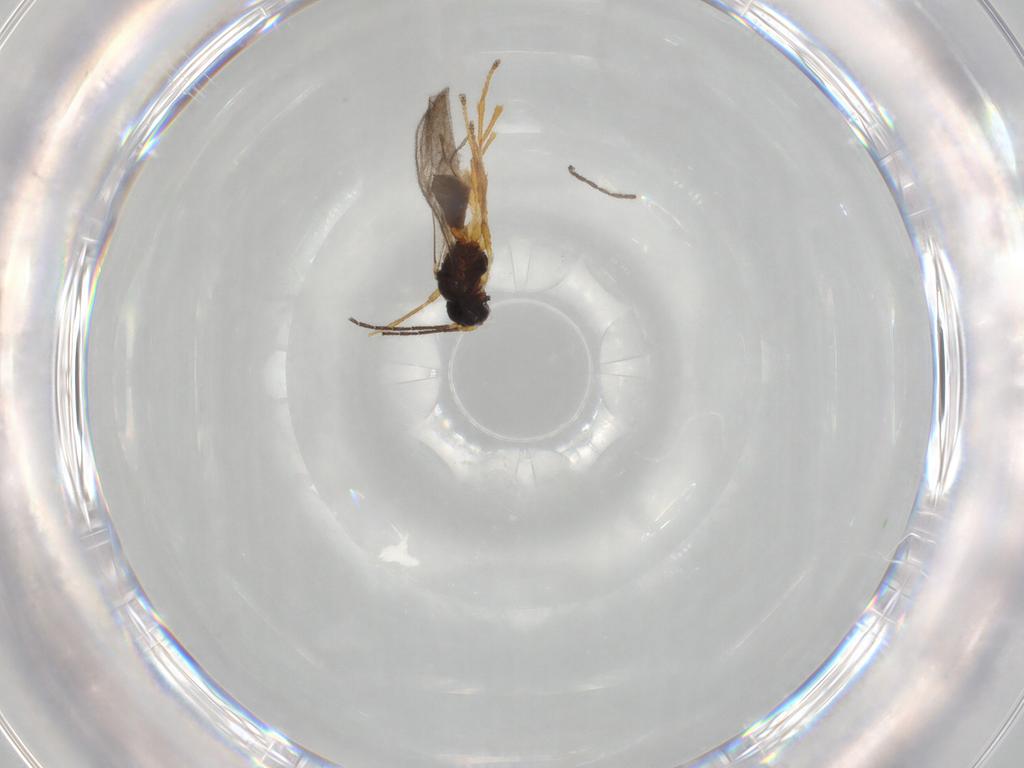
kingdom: Animalia
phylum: Arthropoda
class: Insecta
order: Hymenoptera
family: Braconidae
